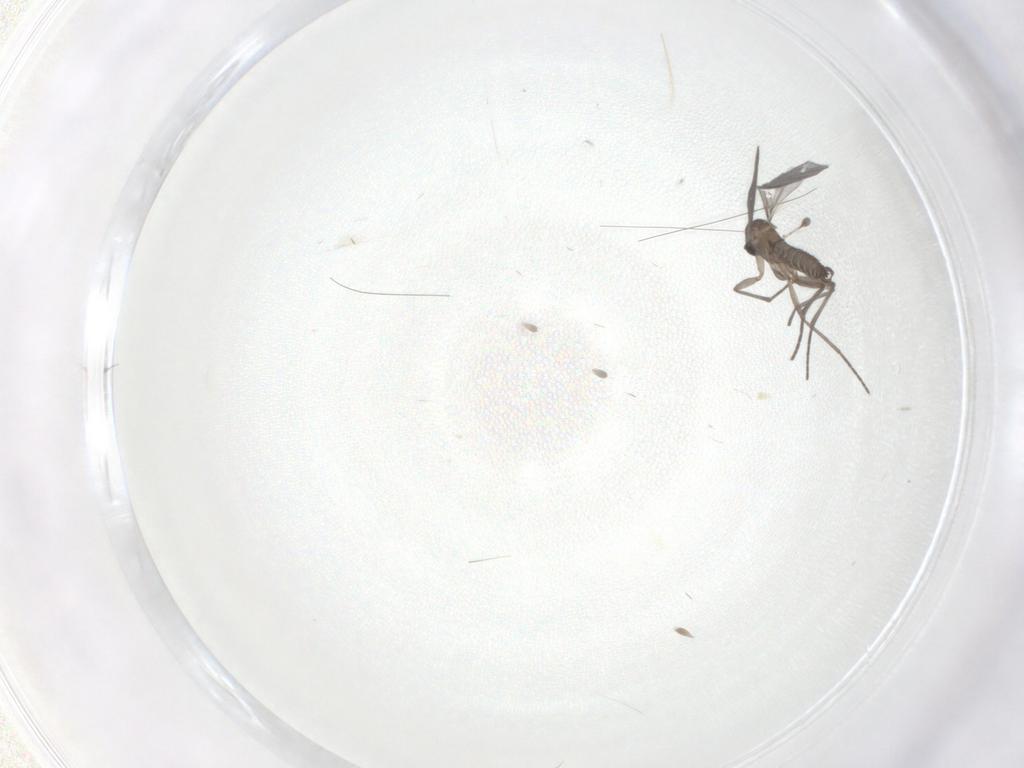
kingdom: Animalia
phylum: Arthropoda
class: Insecta
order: Diptera
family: Sciaridae
